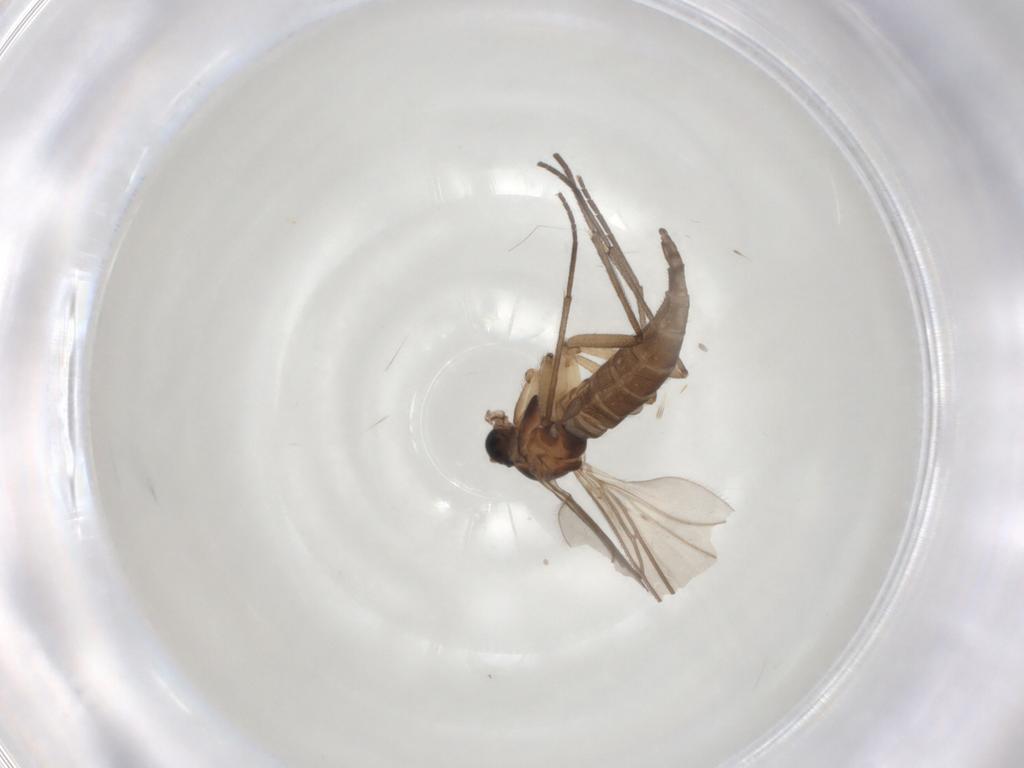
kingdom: Animalia
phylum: Arthropoda
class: Insecta
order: Diptera
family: Sciaridae
